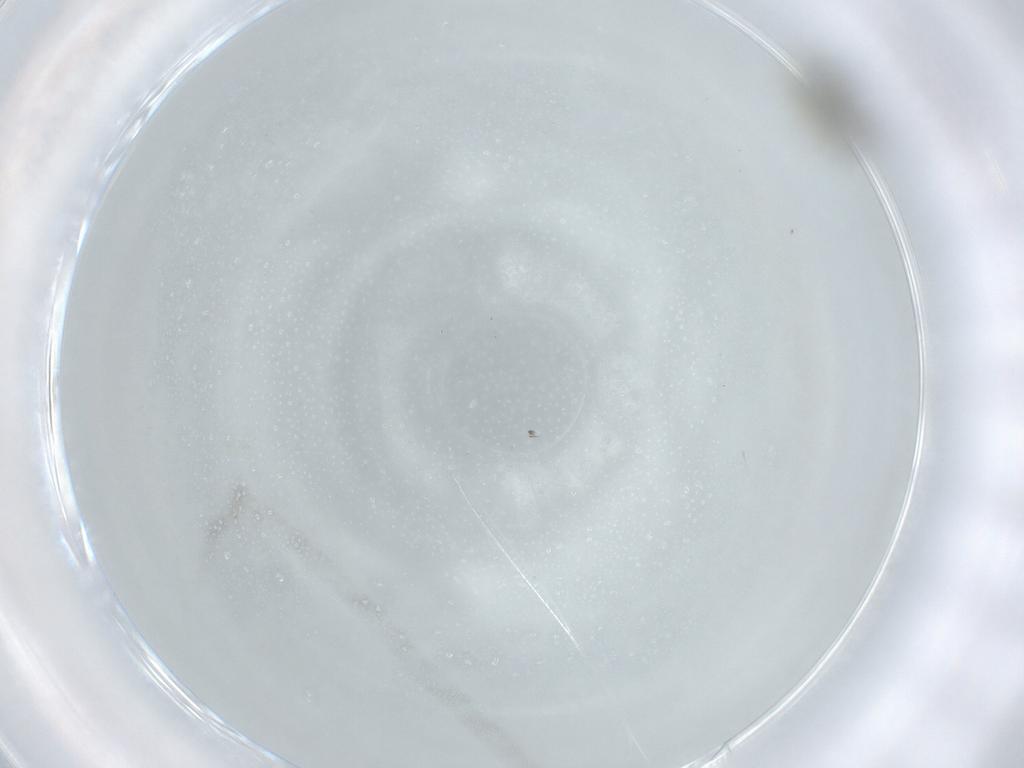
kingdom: Animalia
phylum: Arthropoda
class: Insecta
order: Diptera
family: Cecidomyiidae
